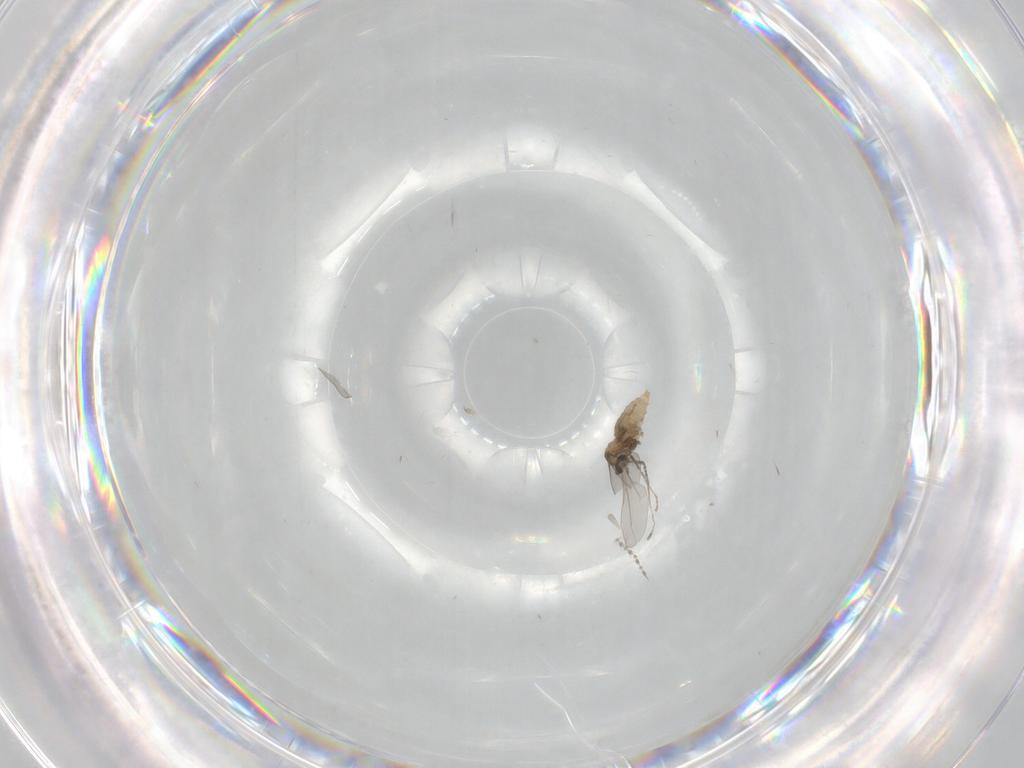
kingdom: Animalia
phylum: Arthropoda
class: Insecta
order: Diptera
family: Cecidomyiidae
